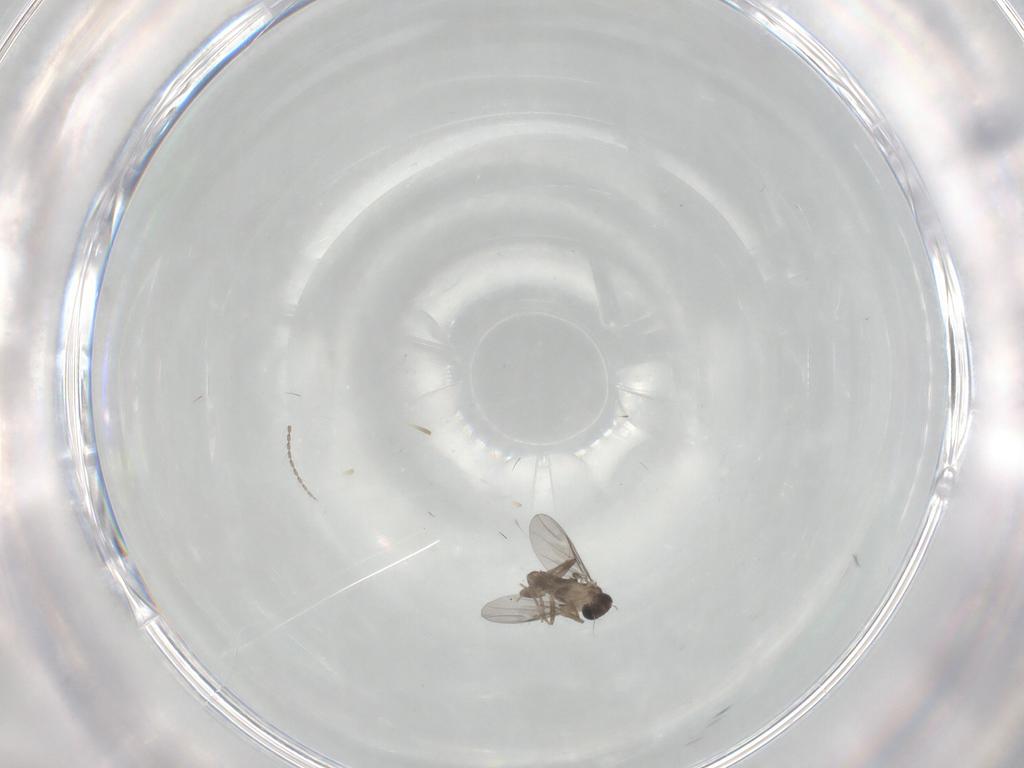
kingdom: Animalia
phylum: Arthropoda
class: Insecta
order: Diptera
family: Cecidomyiidae
